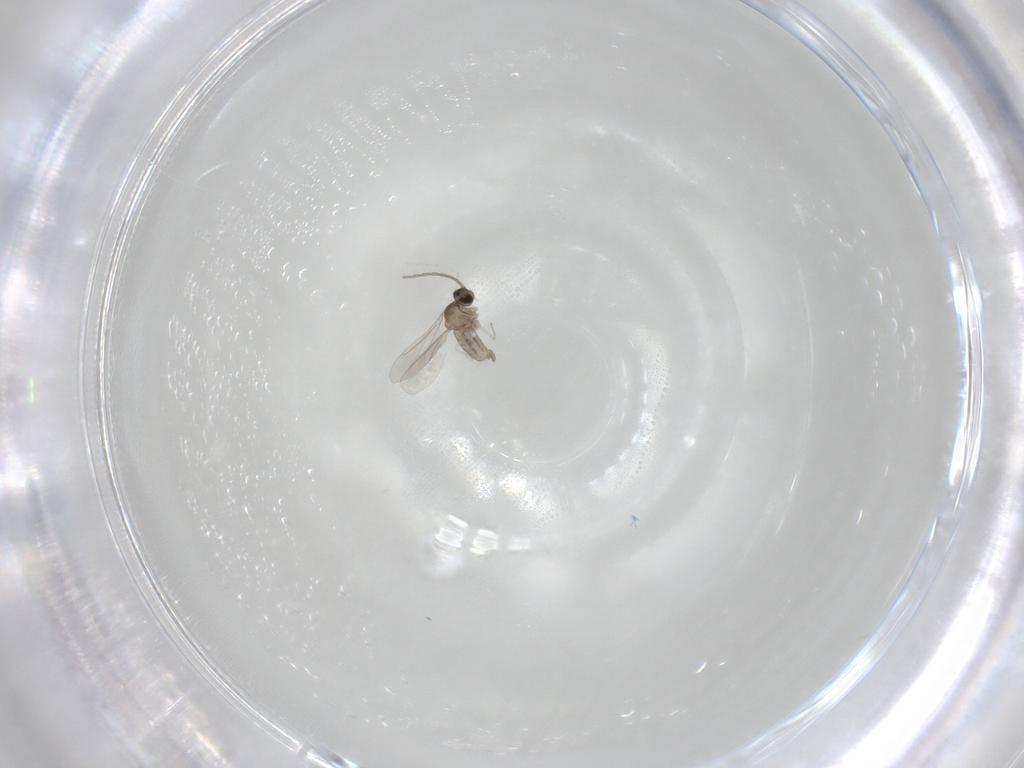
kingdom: Animalia
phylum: Arthropoda
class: Insecta
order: Diptera
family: Cecidomyiidae
